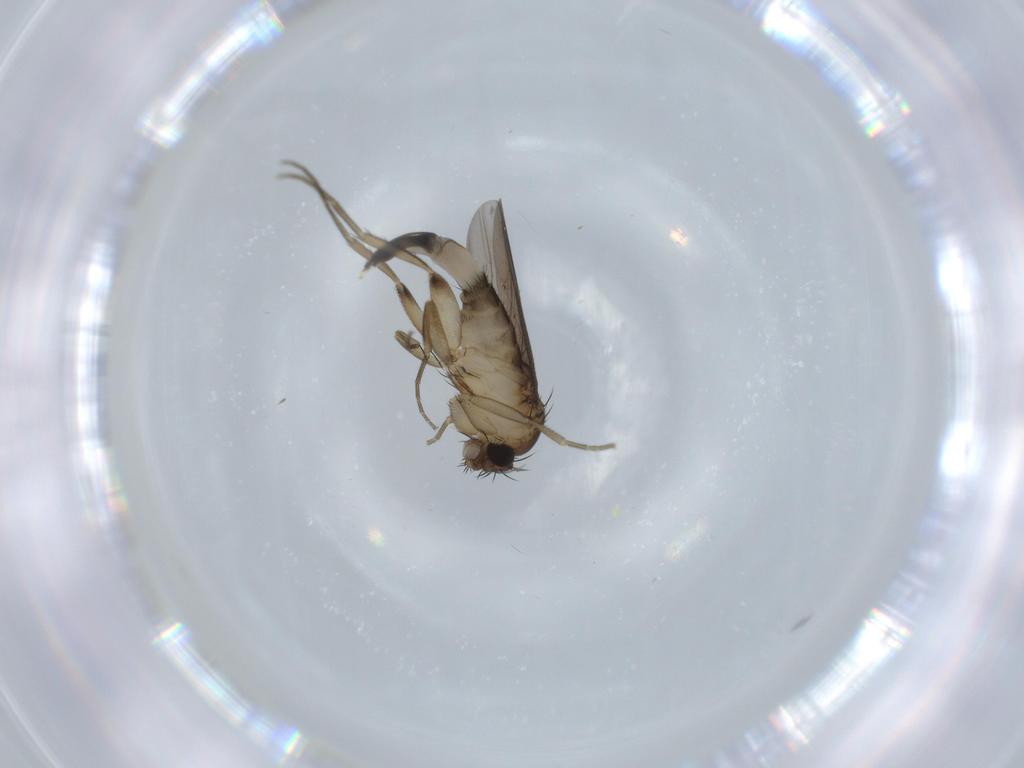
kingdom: Animalia
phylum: Arthropoda
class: Insecta
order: Diptera
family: Phoridae
